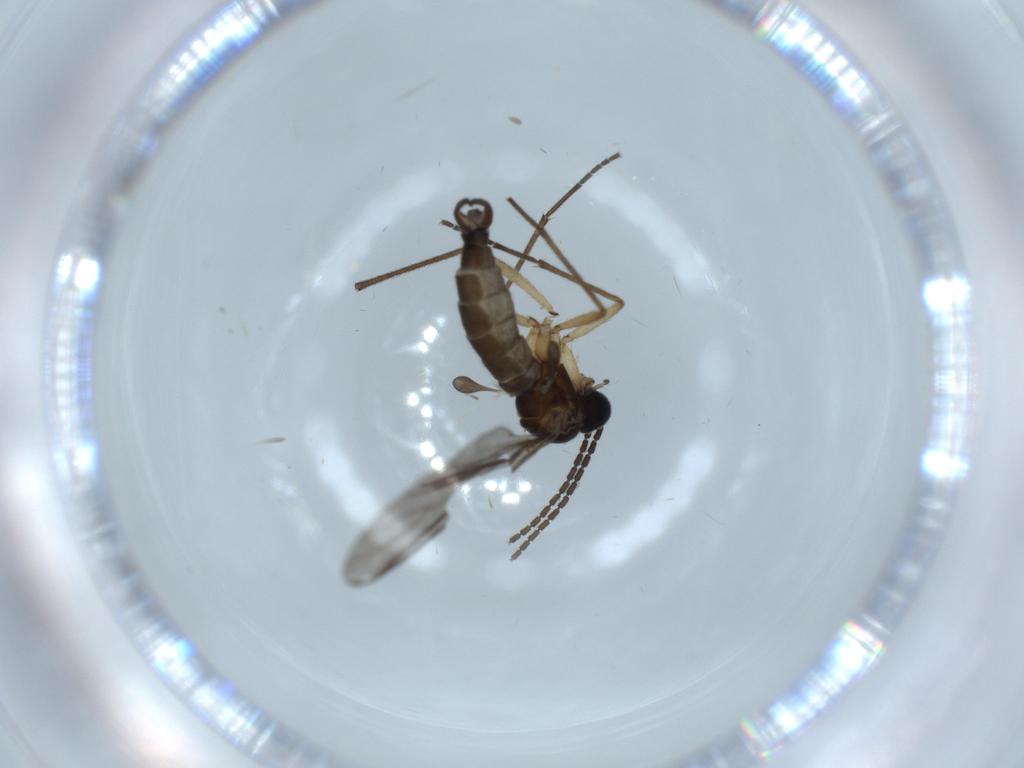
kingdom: Animalia
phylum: Arthropoda
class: Insecta
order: Diptera
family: Sciaridae
